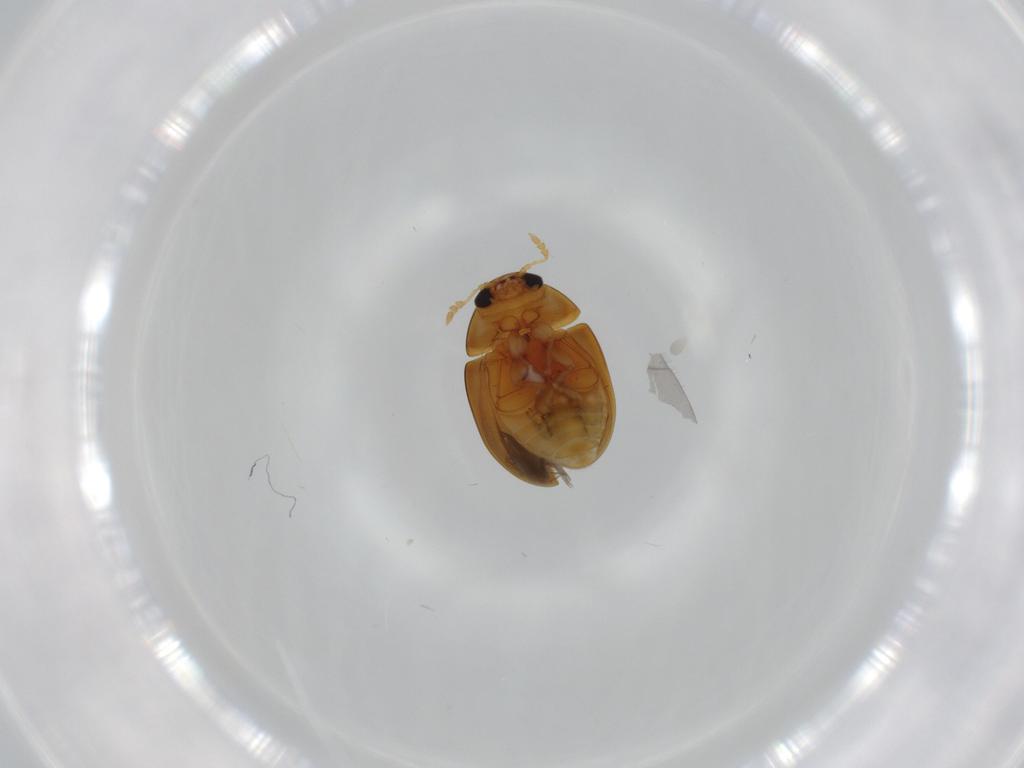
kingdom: Animalia
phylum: Arthropoda
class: Insecta
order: Coleoptera
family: Phalacridae
